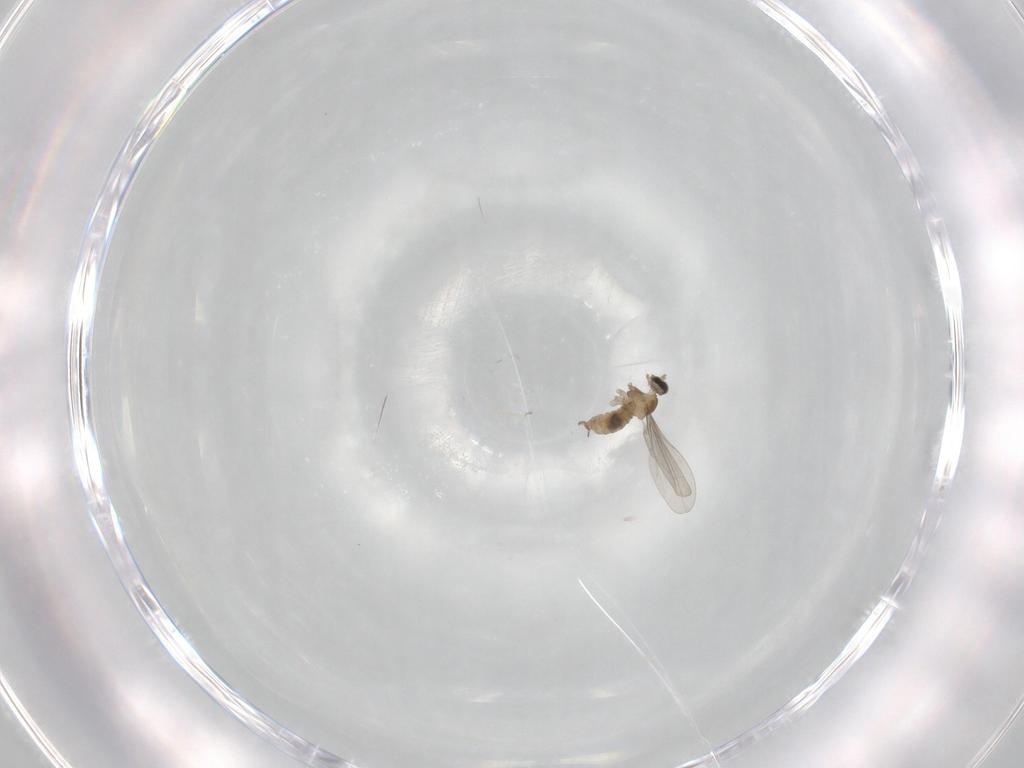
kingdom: Animalia
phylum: Arthropoda
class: Insecta
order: Diptera
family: Cecidomyiidae
